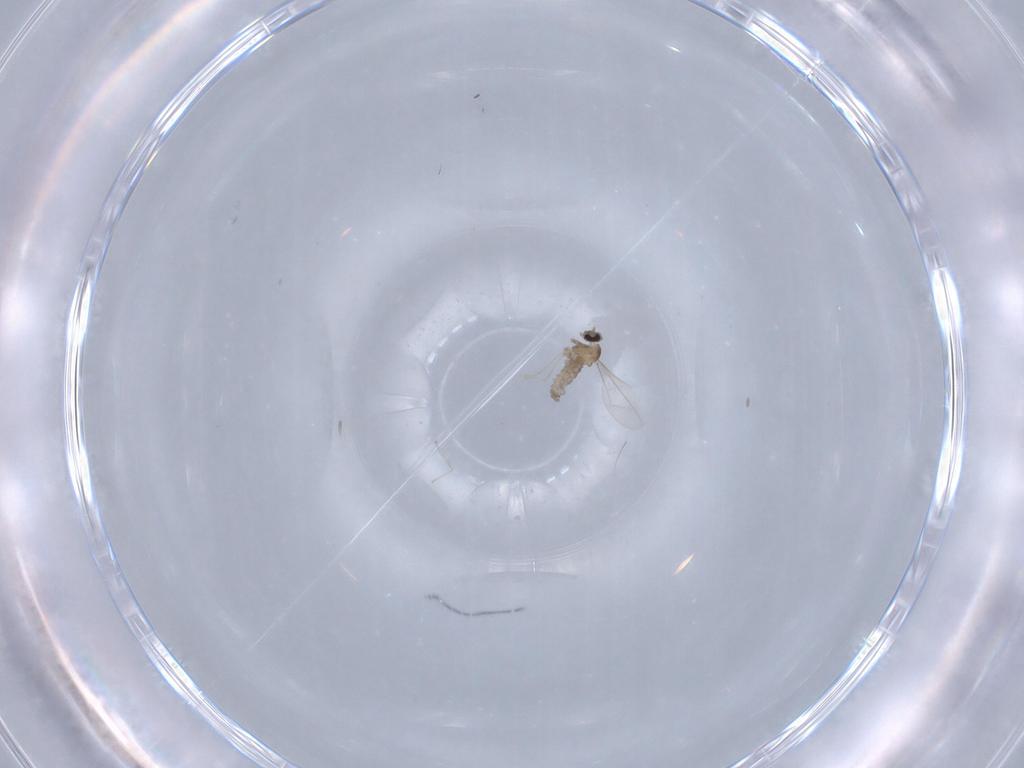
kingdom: Animalia
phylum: Arthropoda
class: Insecta
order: Diptera
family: Cecidomyiidae
